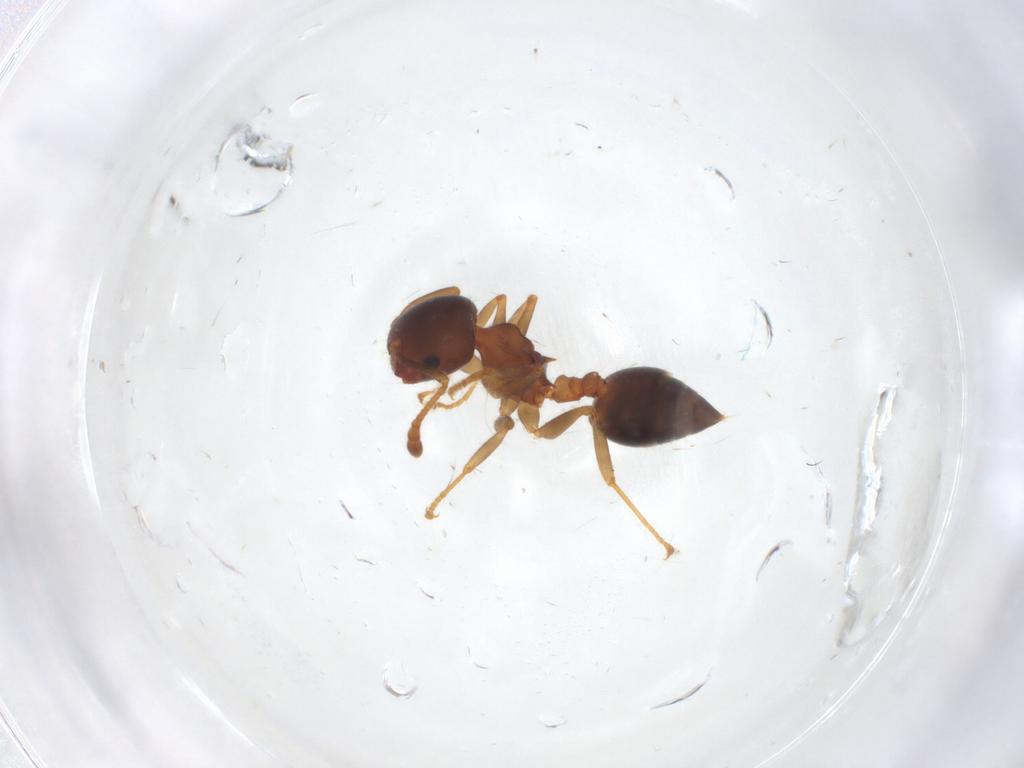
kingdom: Animalia
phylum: Arthropoda
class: Insecta
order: Hymenoptera
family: Formicidae
